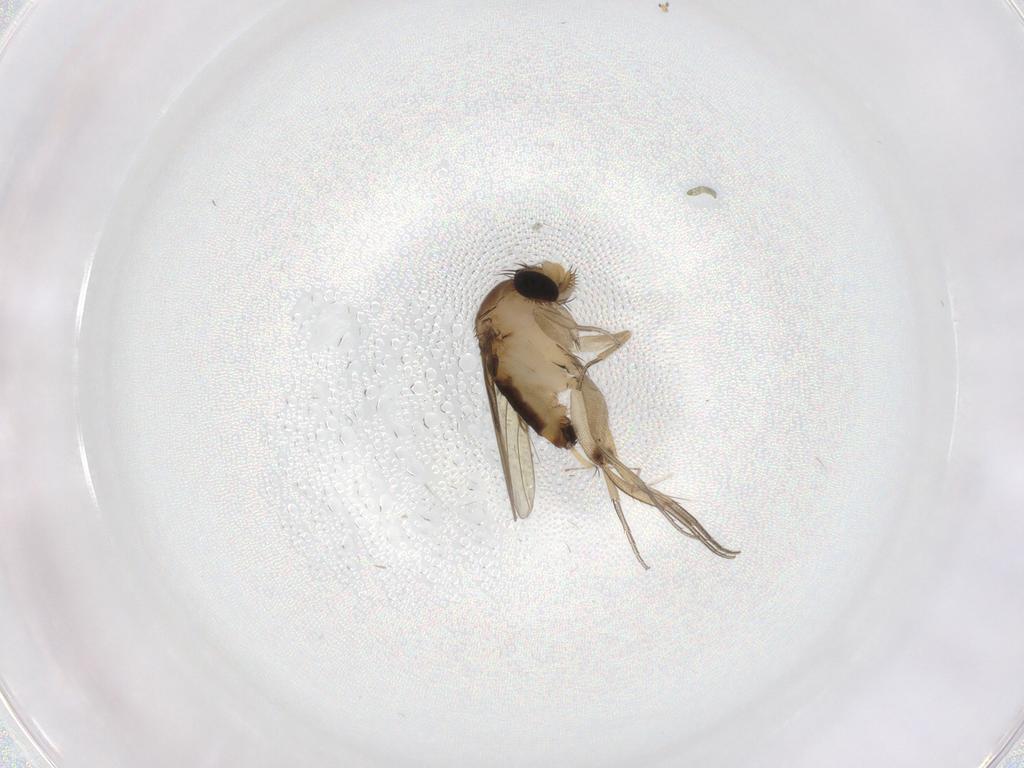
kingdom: Animalia
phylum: Arthropoda
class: Insecta
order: Diptera
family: Phoridae
